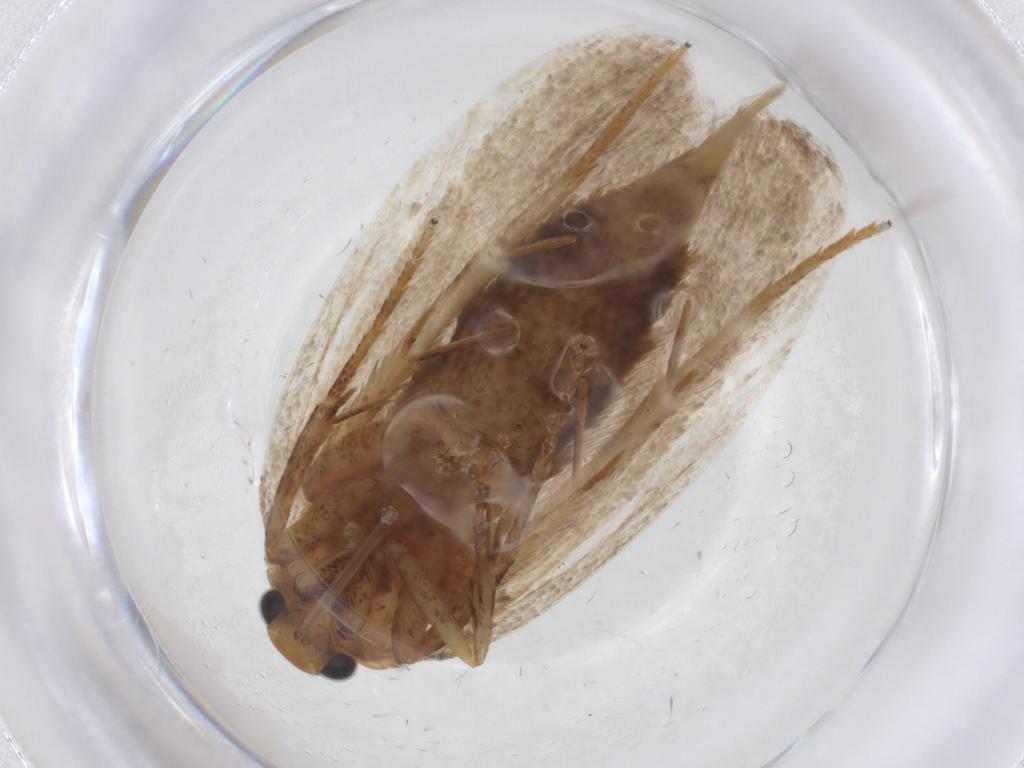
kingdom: Animalia
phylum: Arthropoda
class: Insecta
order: Lepidoptera
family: Oecophoridae
